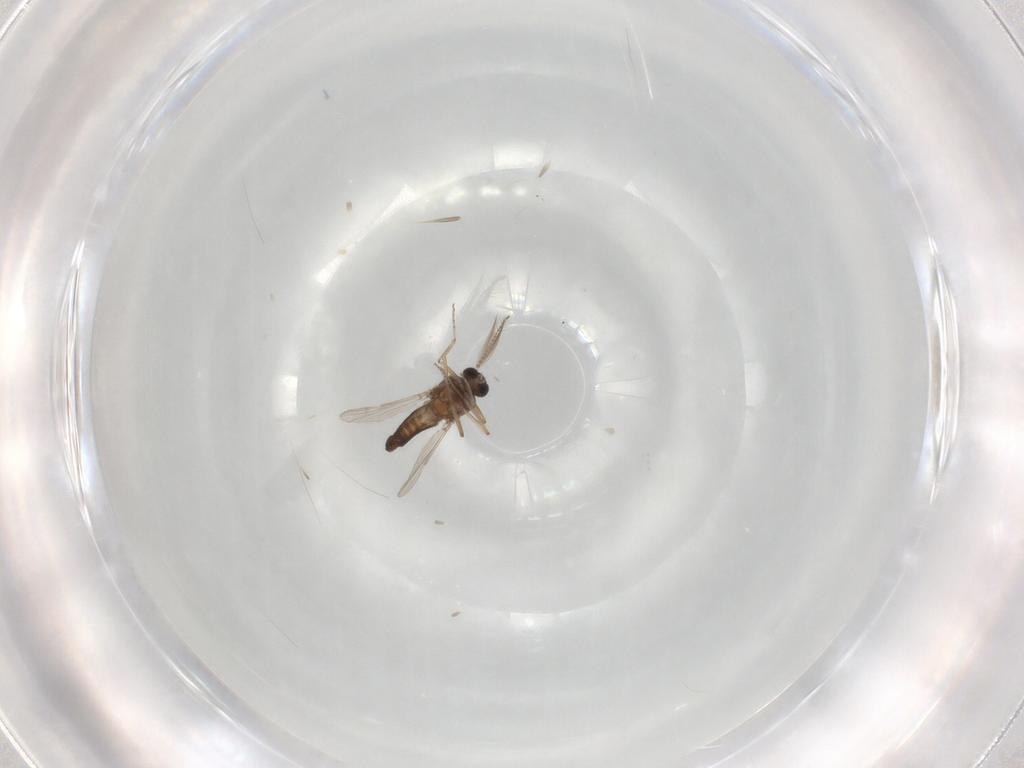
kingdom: Animalia
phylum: Arthropoda
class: Insecta
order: Diptera
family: Ceratopogonidae
